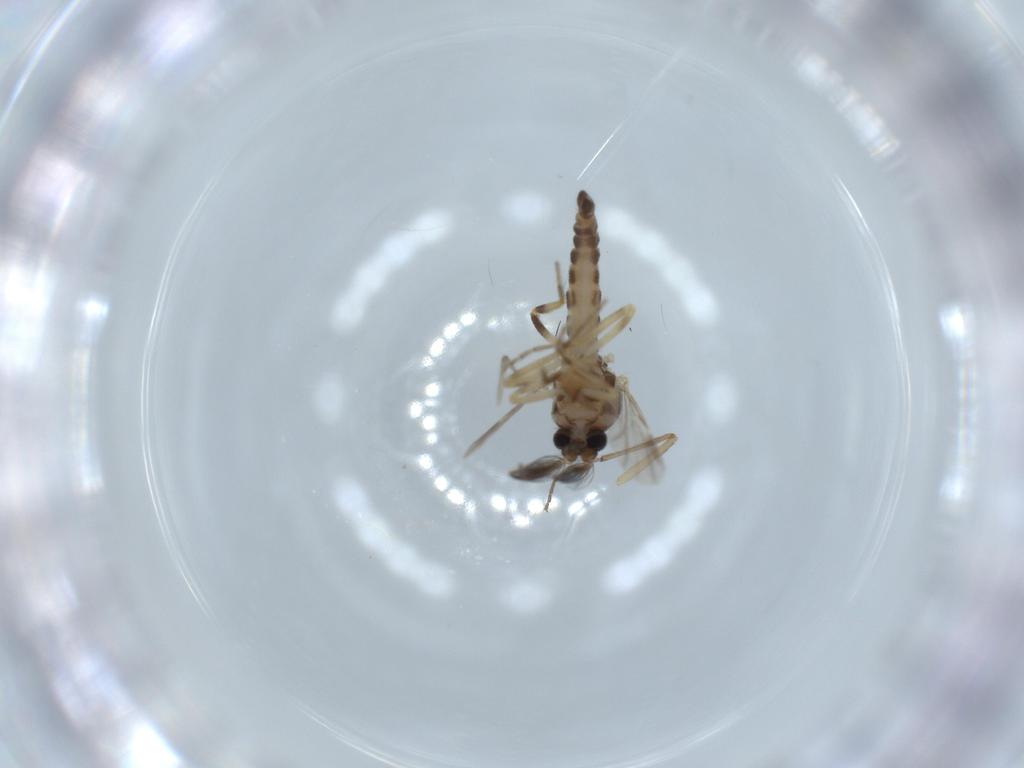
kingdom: Animalia
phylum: Arthropoda
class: Insecta
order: Diptera
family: Ceratopogonidae
